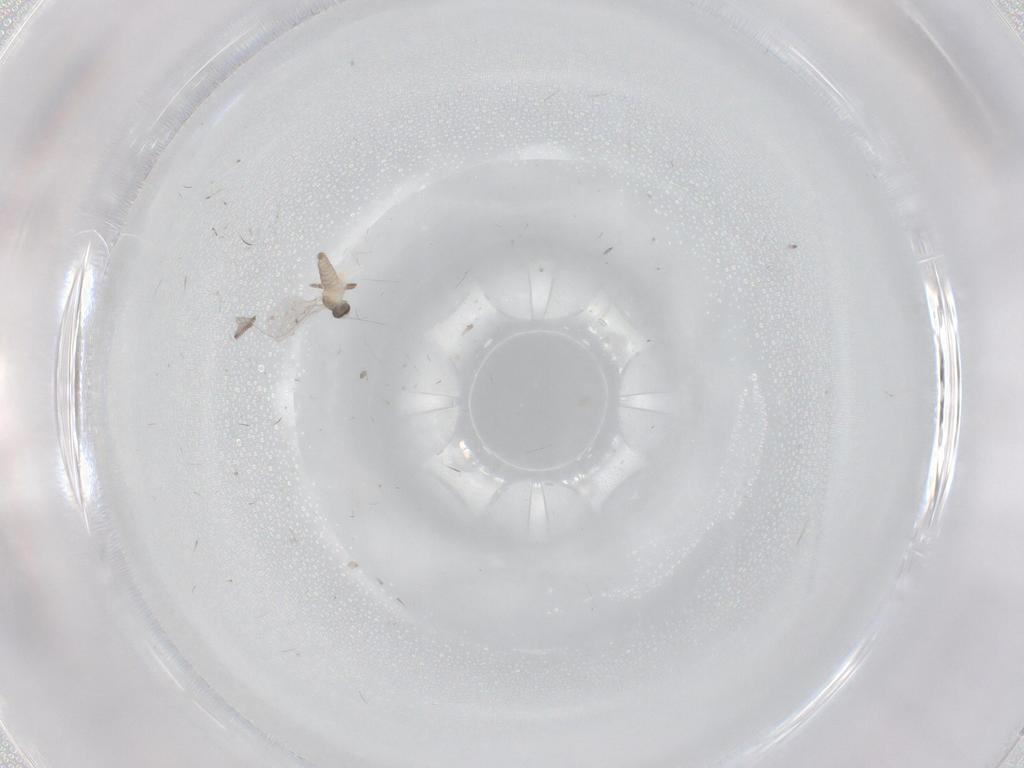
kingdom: Animalia
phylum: Arthropoda
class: Insecta
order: Diptera
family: Cecidomyiidae
